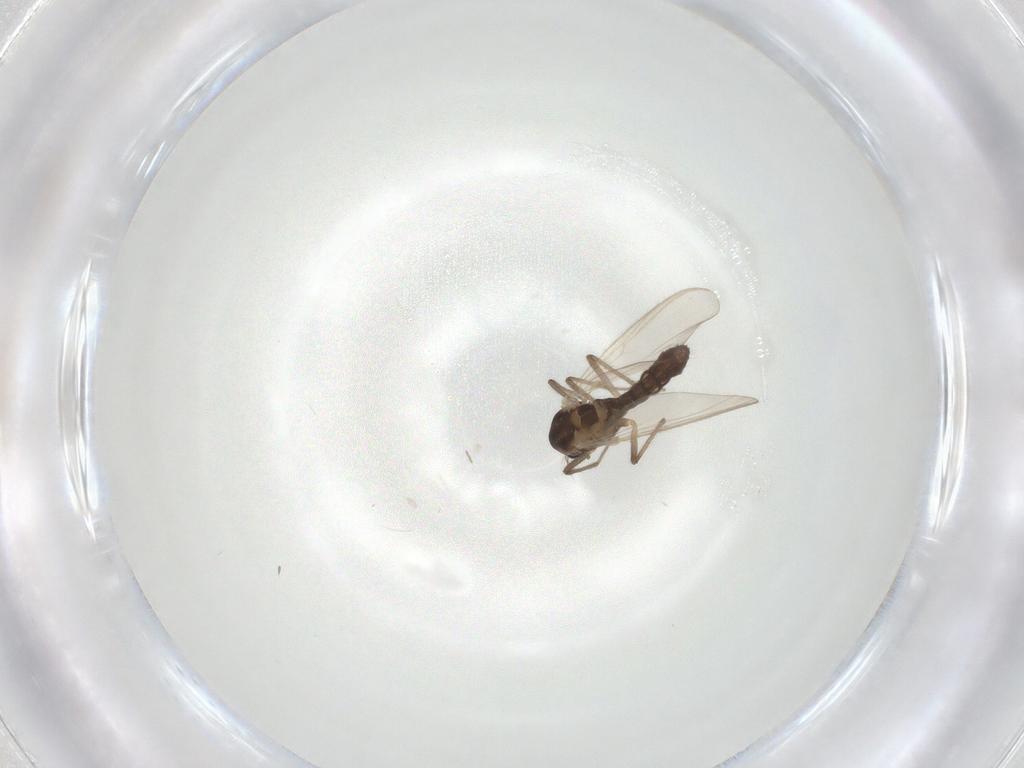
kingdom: Animalia
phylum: Arthropoda
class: Insecta
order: Diptera
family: Chironomidae
